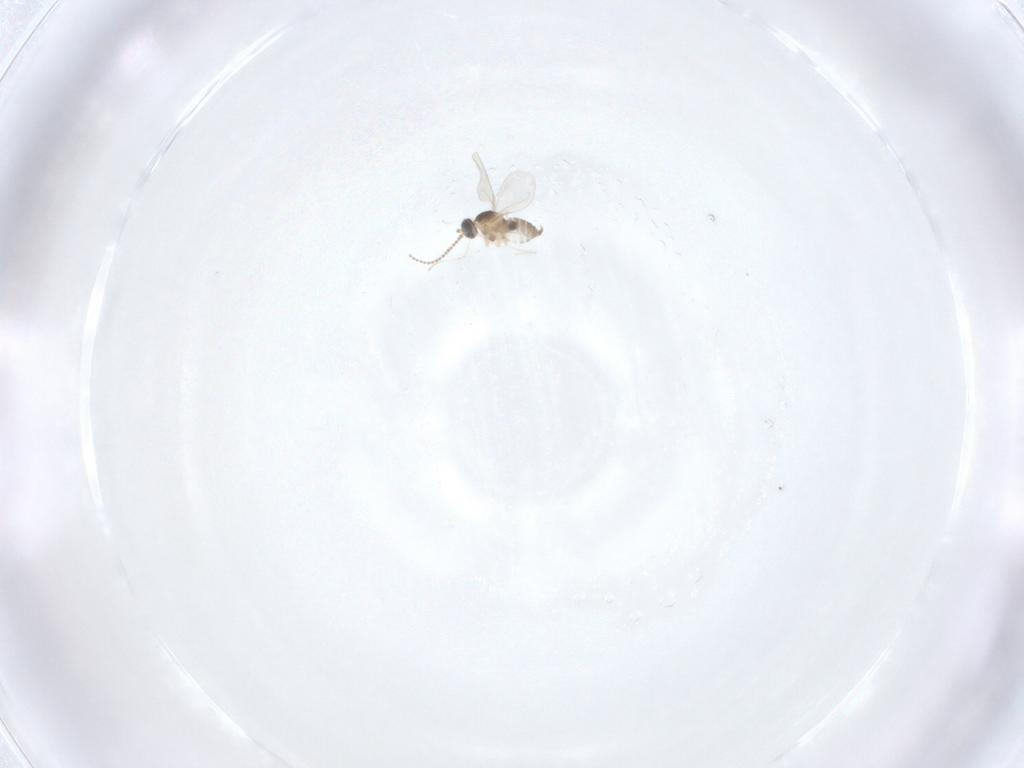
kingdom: Animalia
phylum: Arthropoda
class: Insecta
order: Diptera
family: Cecidomyiidae
